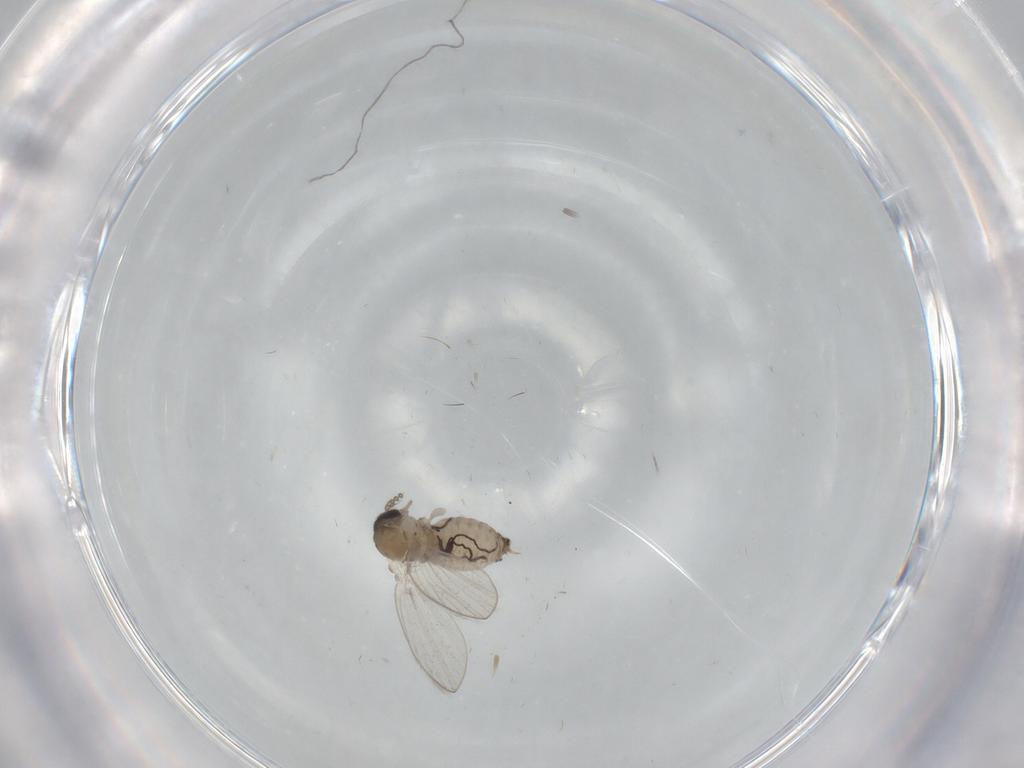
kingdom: Animalia
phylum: Arthropoda
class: Insecta
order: Diptera
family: Psychodidae
